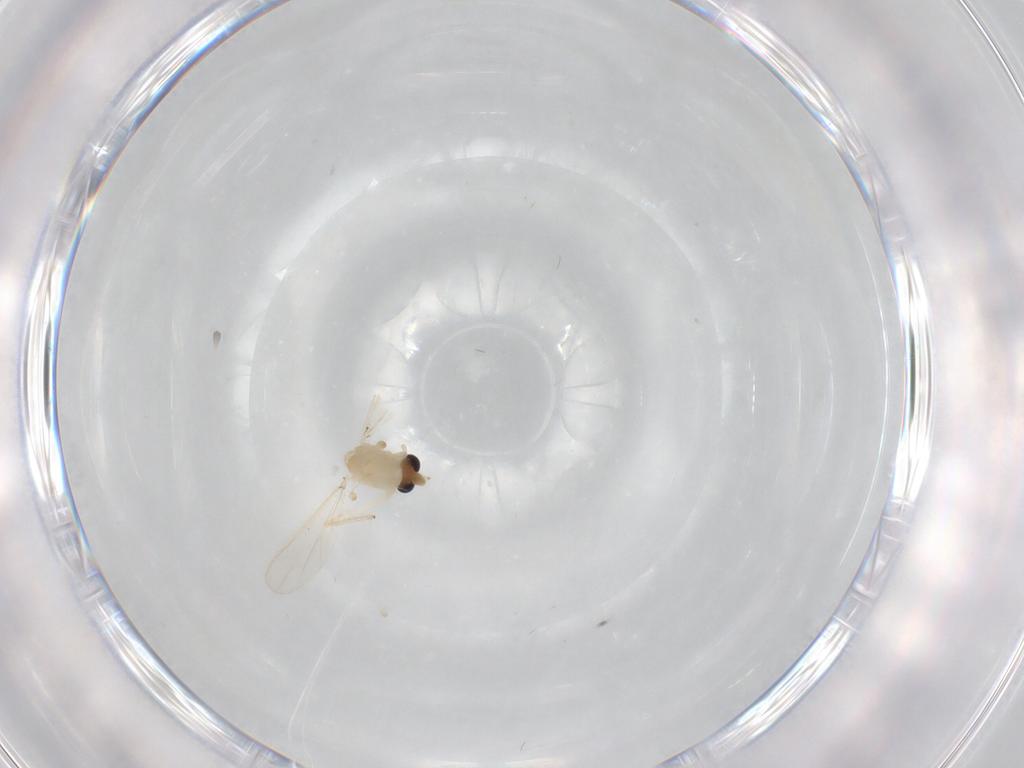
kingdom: Animalia
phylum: Arthropoda
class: Insecta
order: Diptera
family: Chironomidae
